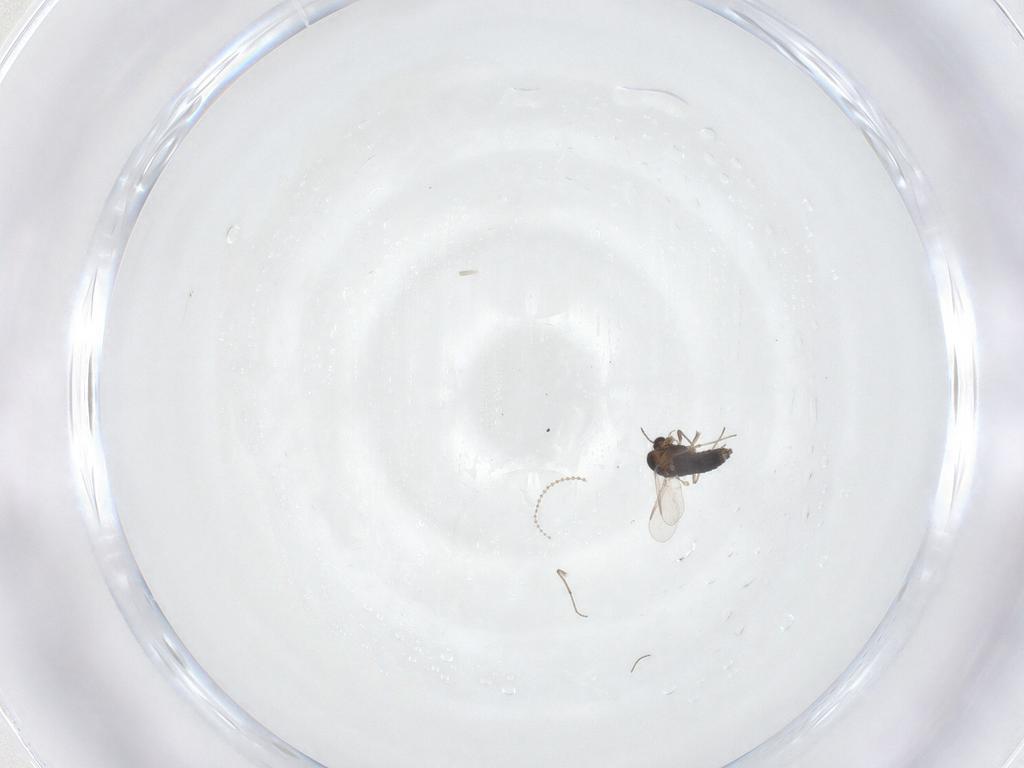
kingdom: Animalia
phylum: Arthropoda
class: Insecta
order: Diptera
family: Chironomidae
